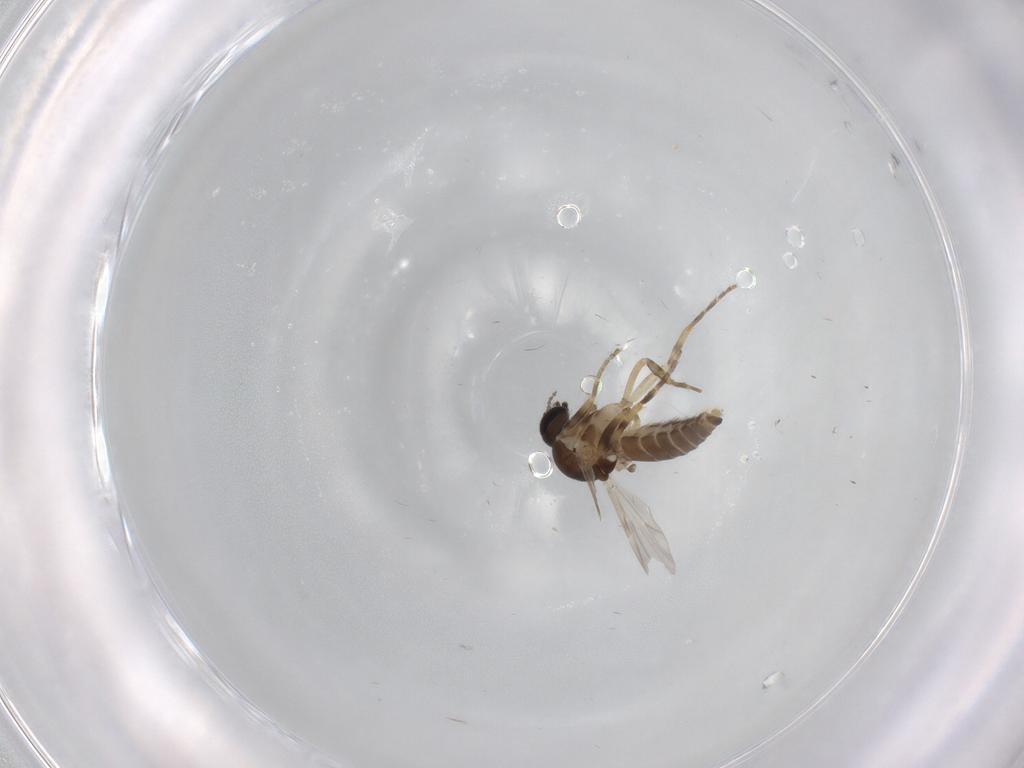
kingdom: Animalia
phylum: Arthropoda
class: Insecta
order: Diptera
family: Ceratopogonidae
